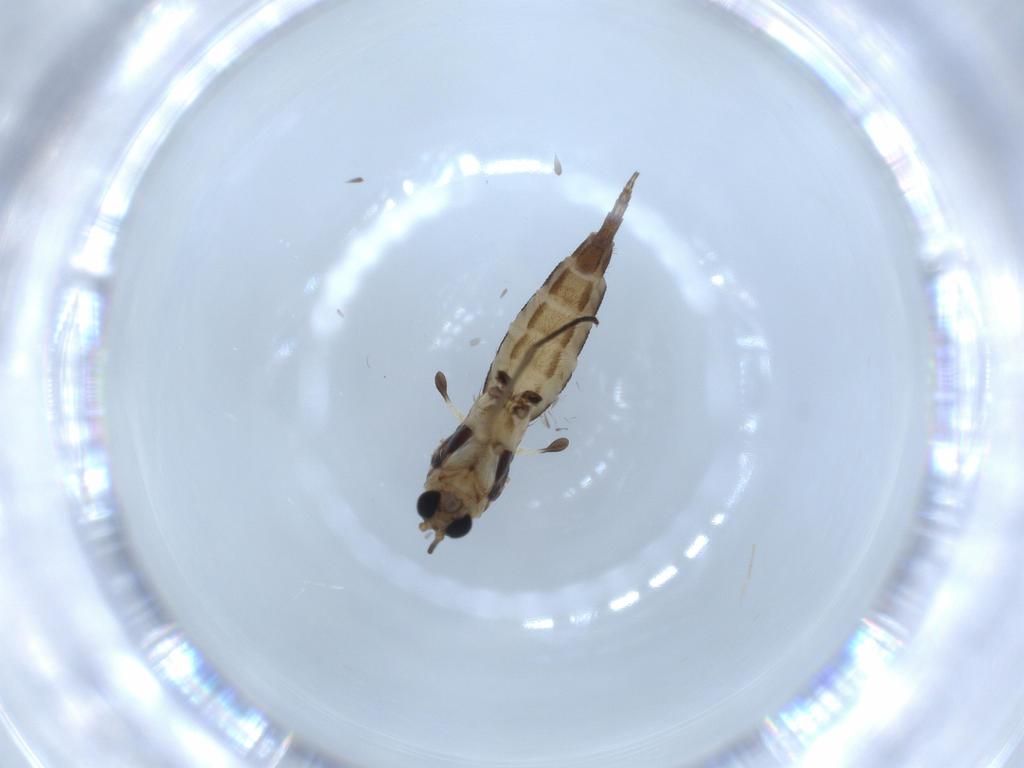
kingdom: Animalia
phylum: Arthropoda
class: Insecta
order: Diptera
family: Sciaridae
